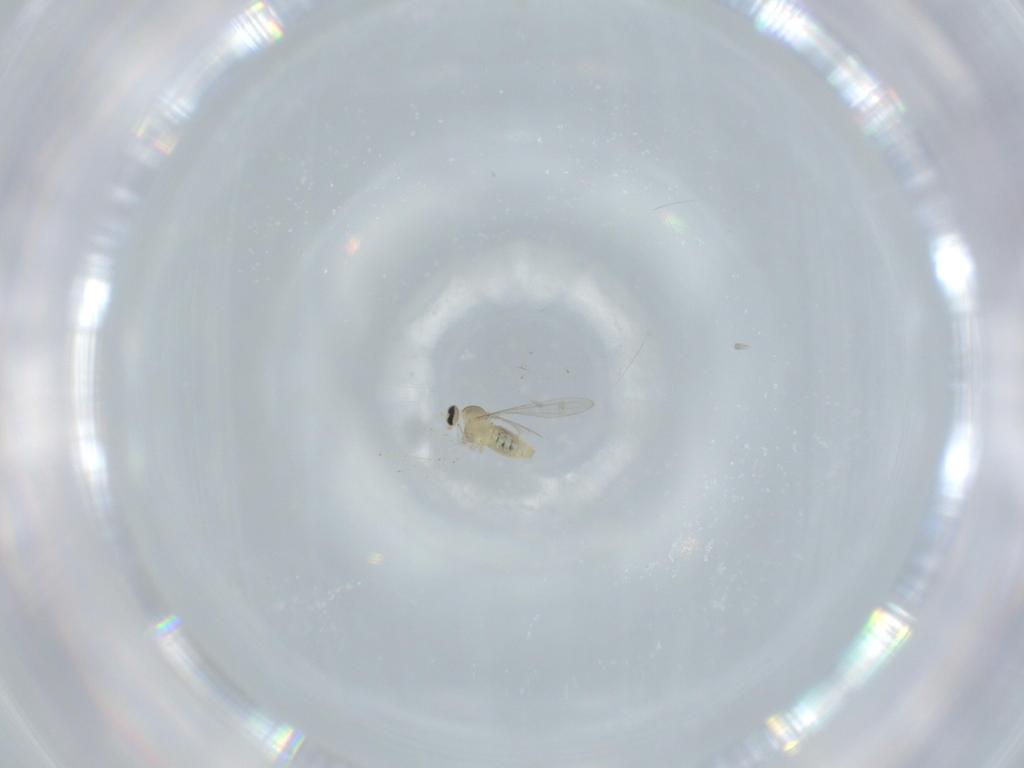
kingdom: Animalia
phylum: Arthropoda
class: Insecta
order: Diptera
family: Cecidomyiidae
